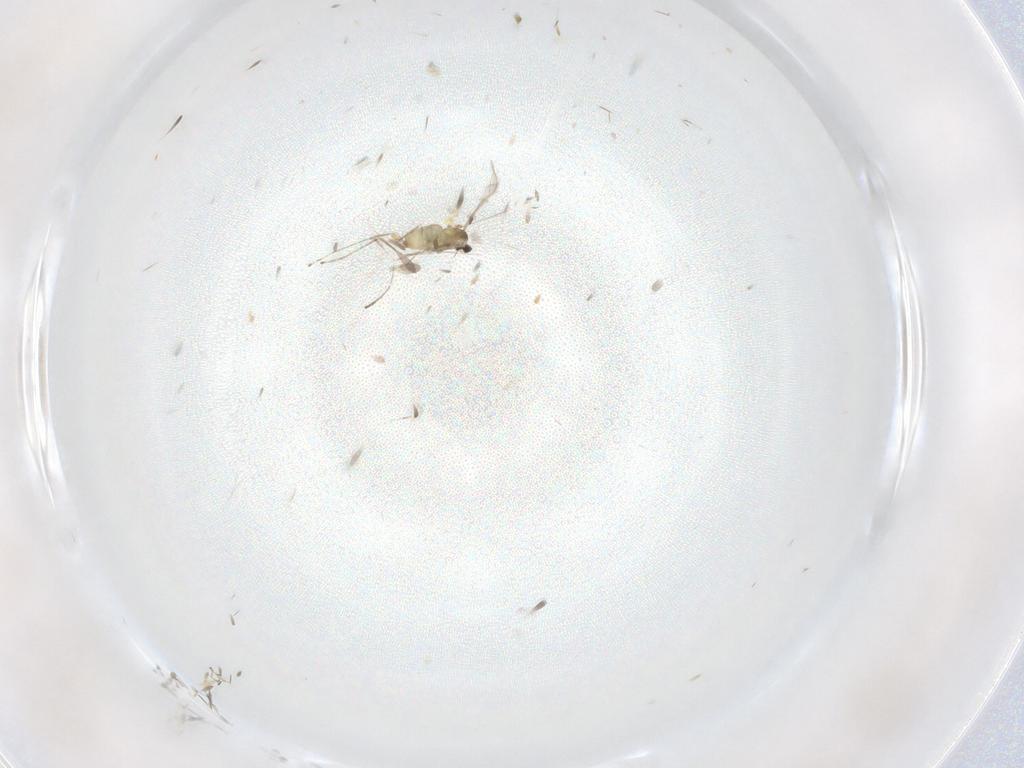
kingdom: Animalia
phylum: Arthropoda
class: Insecta
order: Diptera
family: Cecidomyiidae
